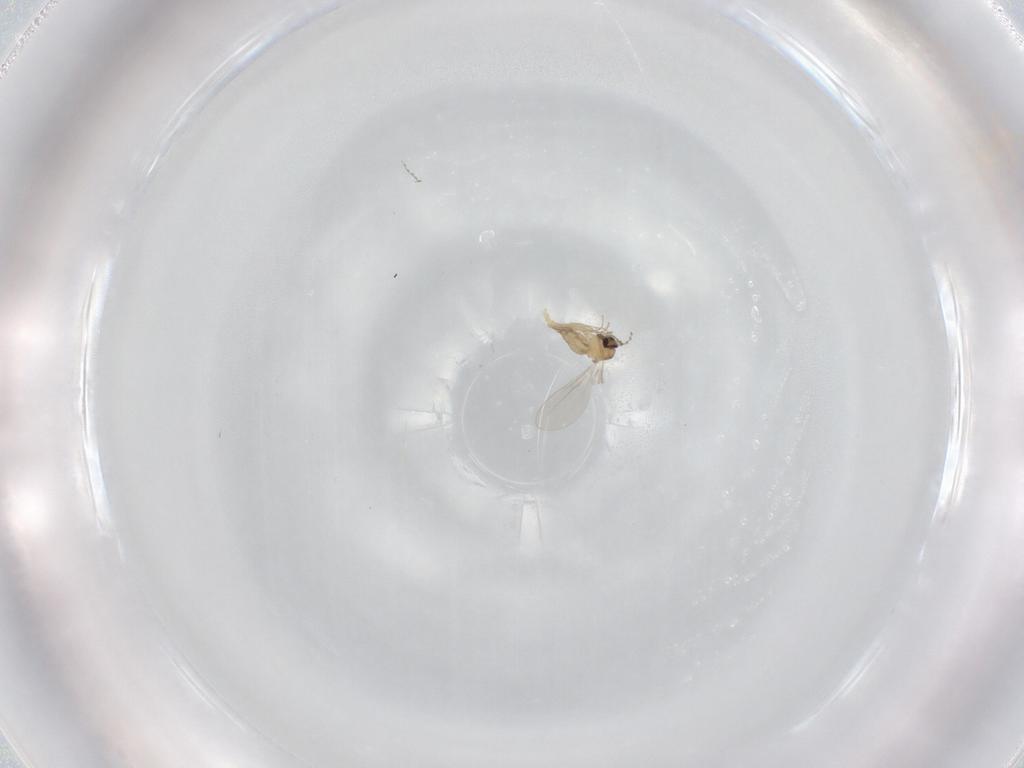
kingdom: Animalia
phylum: Arthropoda
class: Insecta
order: Diptera
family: Cecidomyiidae
